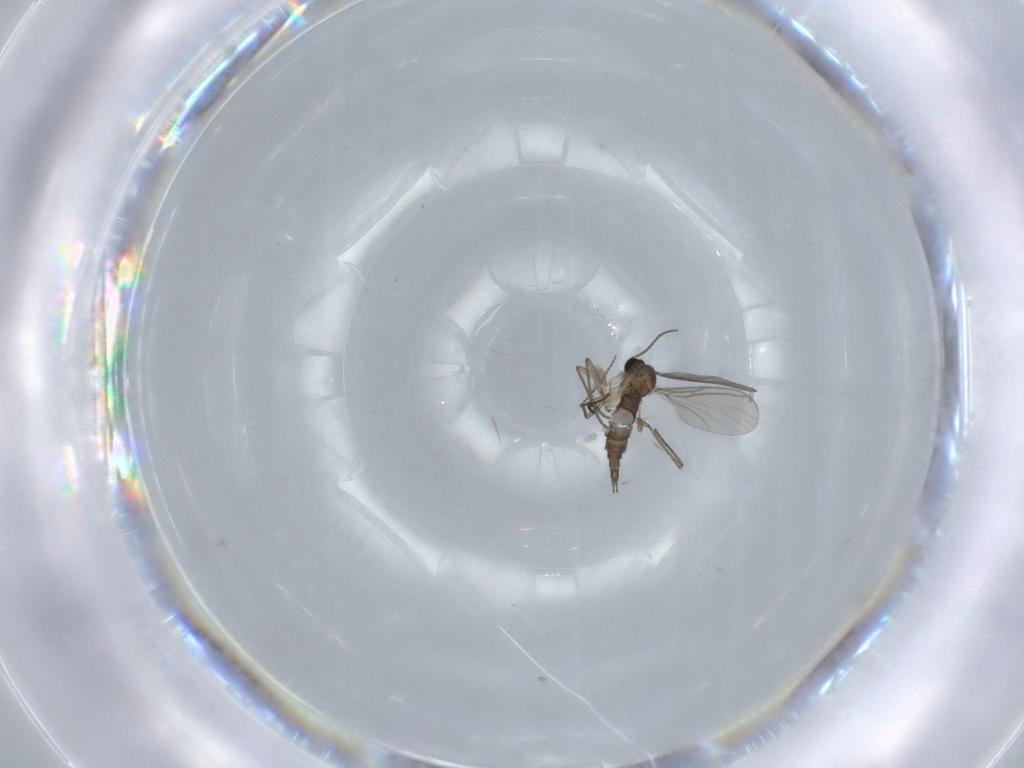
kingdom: Animalia
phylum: Arthropoda
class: Insecta
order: Diptera
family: Sciaridae
